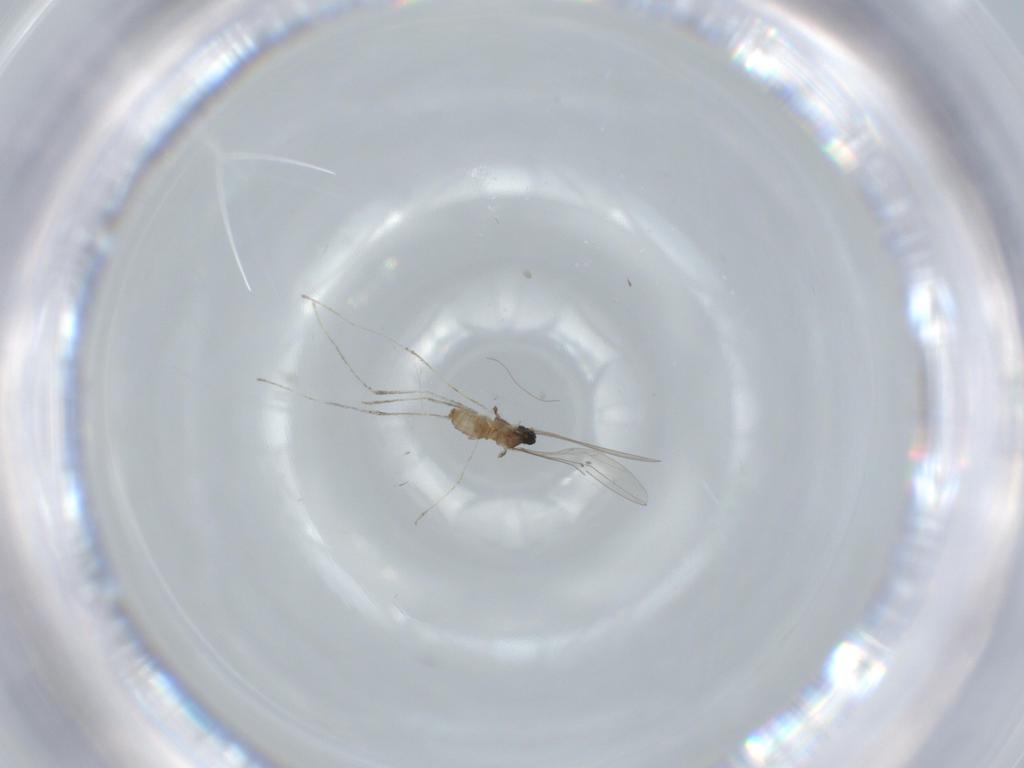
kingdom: Animalia
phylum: Arthropoda
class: Insecta
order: Diptera
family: Cecidomyiidae
